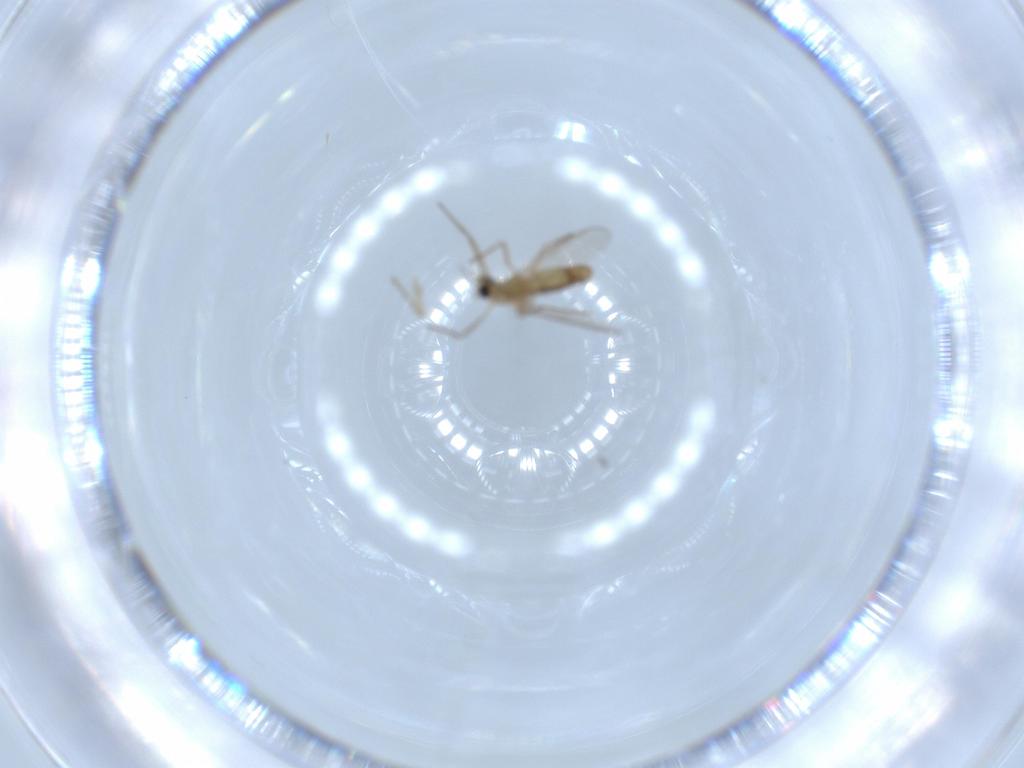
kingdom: Animalia
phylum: Arthropoda
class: Insecta
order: Diptera
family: Chironomidae
